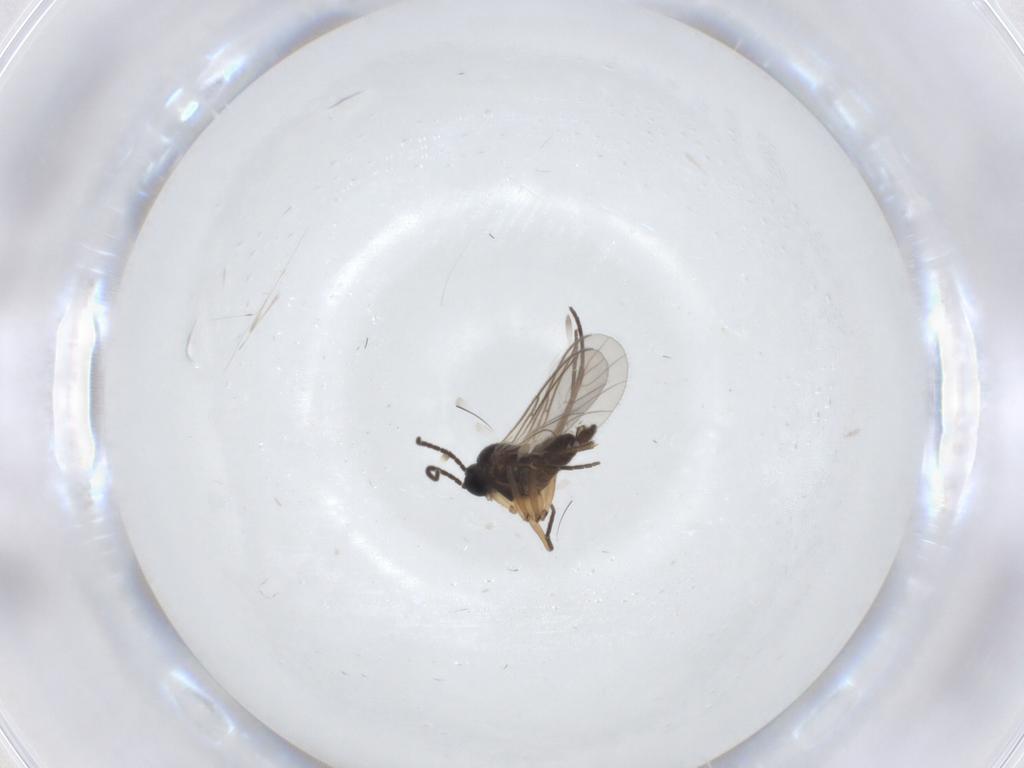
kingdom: Animalia
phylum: Arthropoda
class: Insecta
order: Diptera
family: Sciaridae
